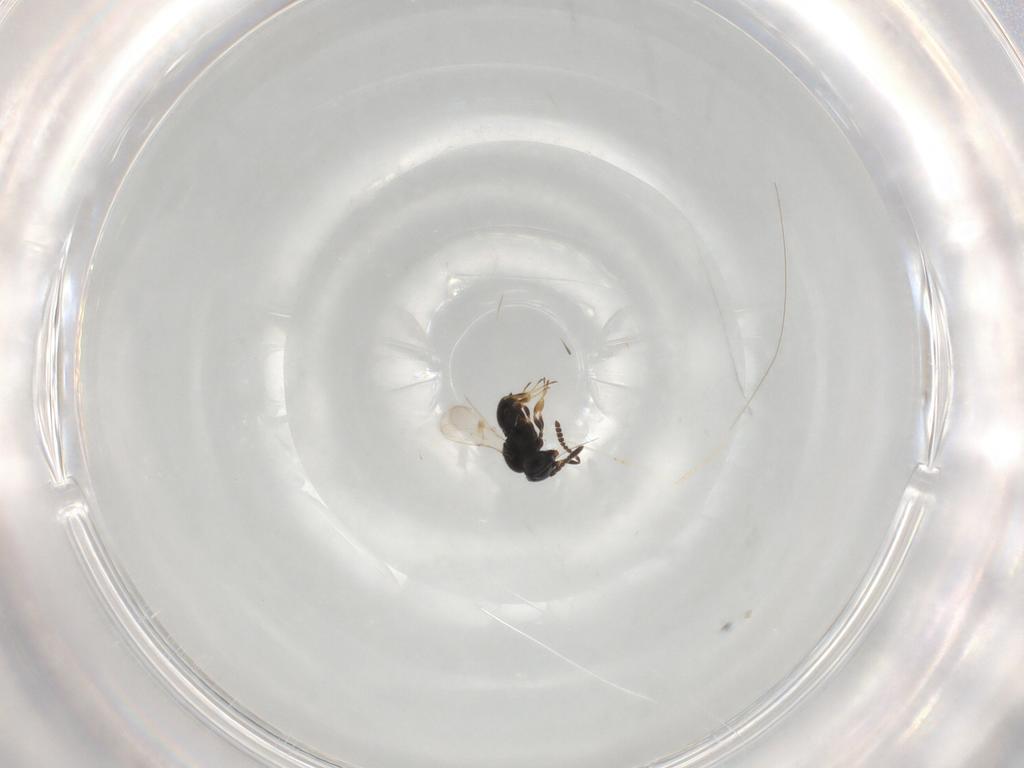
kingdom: Animalia
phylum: Arthropoda
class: Insecta
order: Hymenoptera
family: Scelionidae
